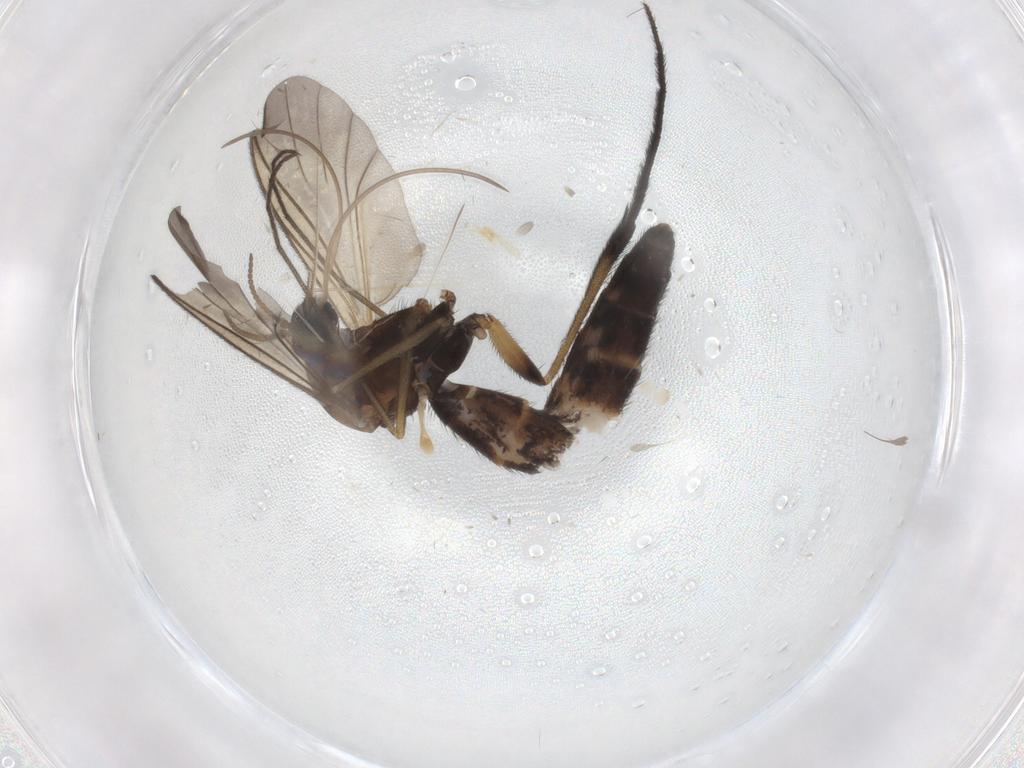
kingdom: Animalia
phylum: Arthropoda
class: Insecta
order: Diptera
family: Keroplatidae
